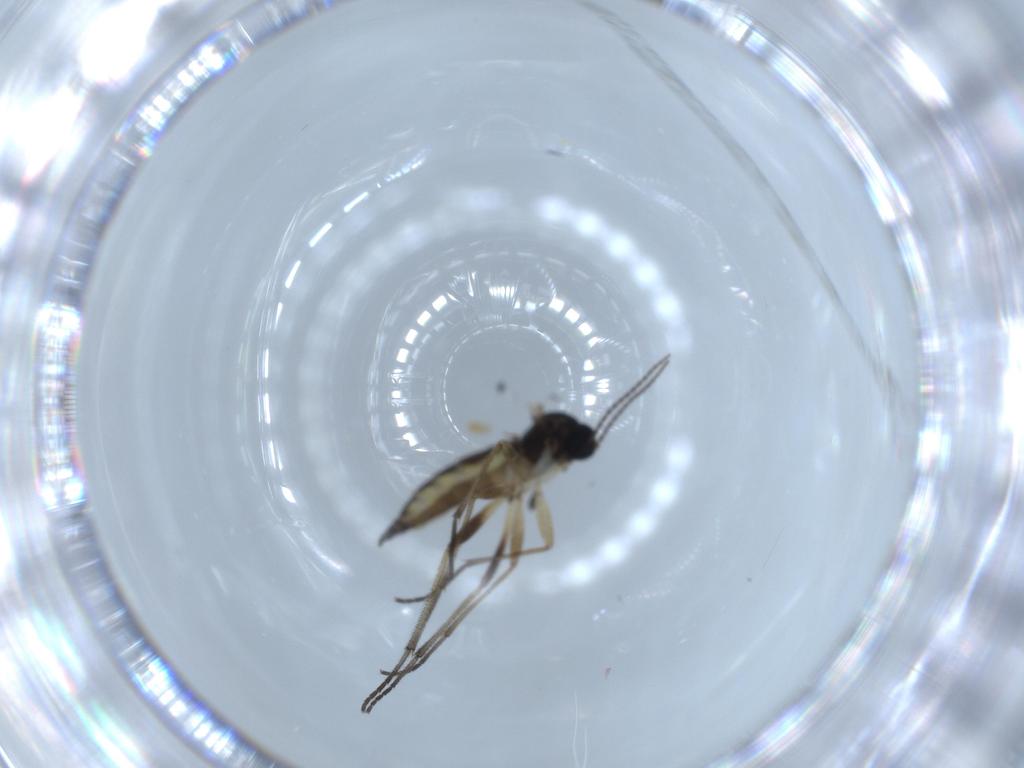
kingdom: Animalia
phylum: Arthropoda
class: Insecta
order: Diptera
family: Sciaridae
